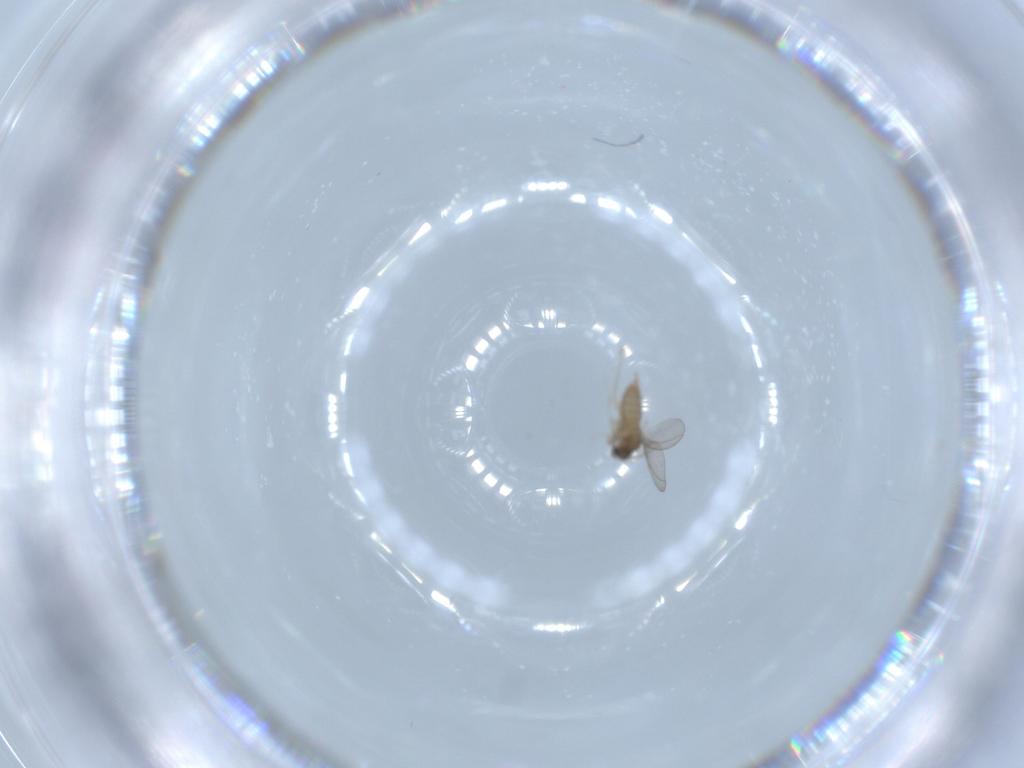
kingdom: Animalia
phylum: Arthropoda
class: Insecta
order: Diptera
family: Cecidomyiidae
